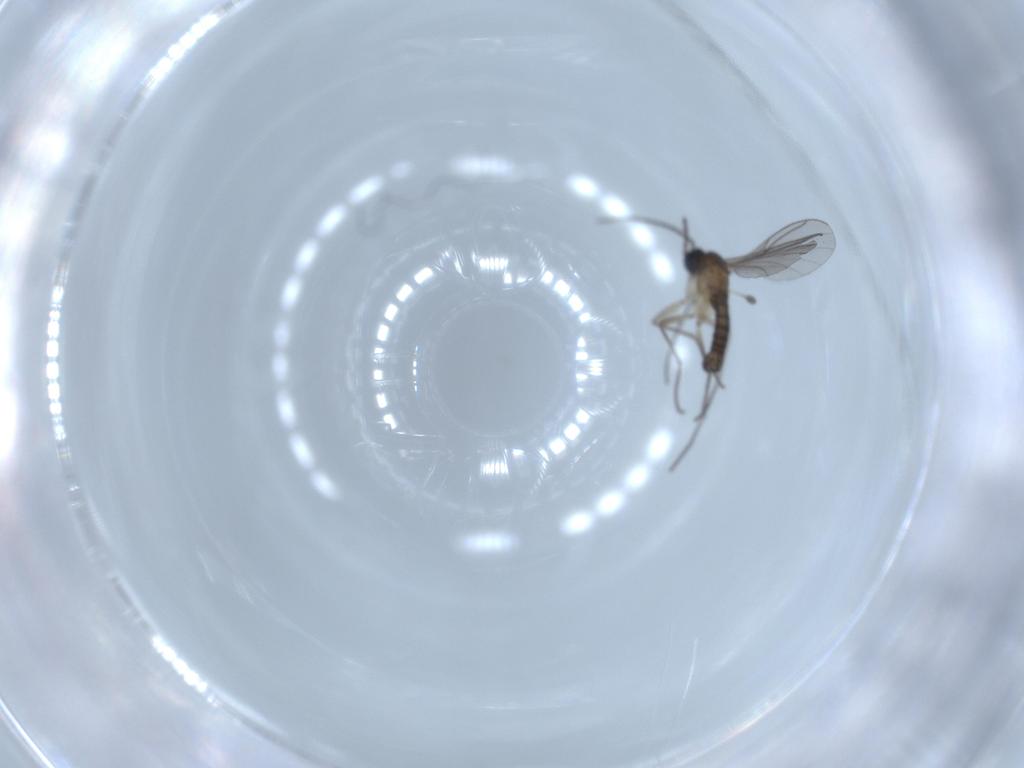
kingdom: Animalia
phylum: Arthropoda
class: Insecta
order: Diptera
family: Sciaridae
